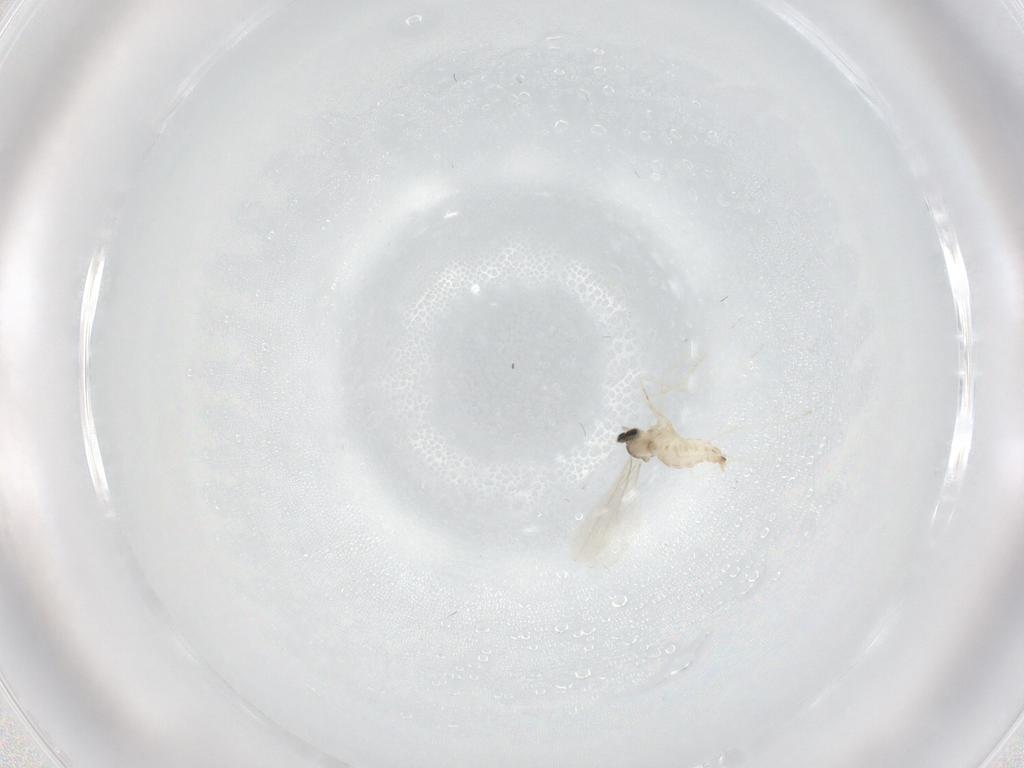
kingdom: Animalia
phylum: Arthropoda
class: Insecta
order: Diptera
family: Cecidomyiidae
